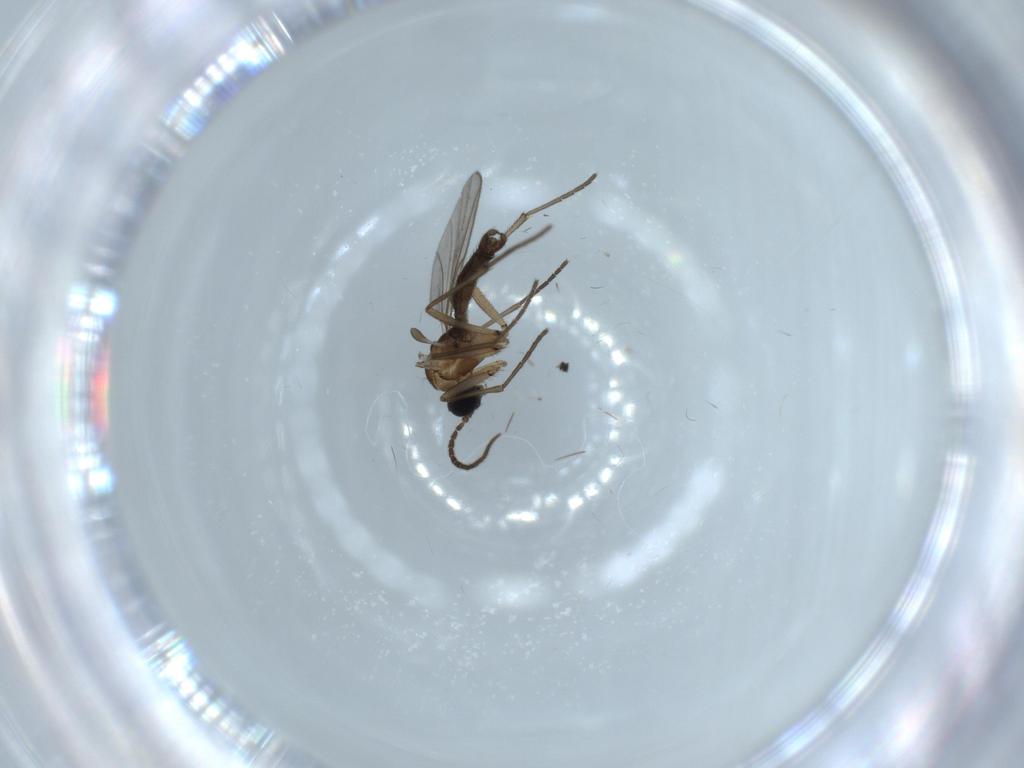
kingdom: Animalia
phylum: Arthropoda
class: Insecta
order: Diptera
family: Sciaridae
